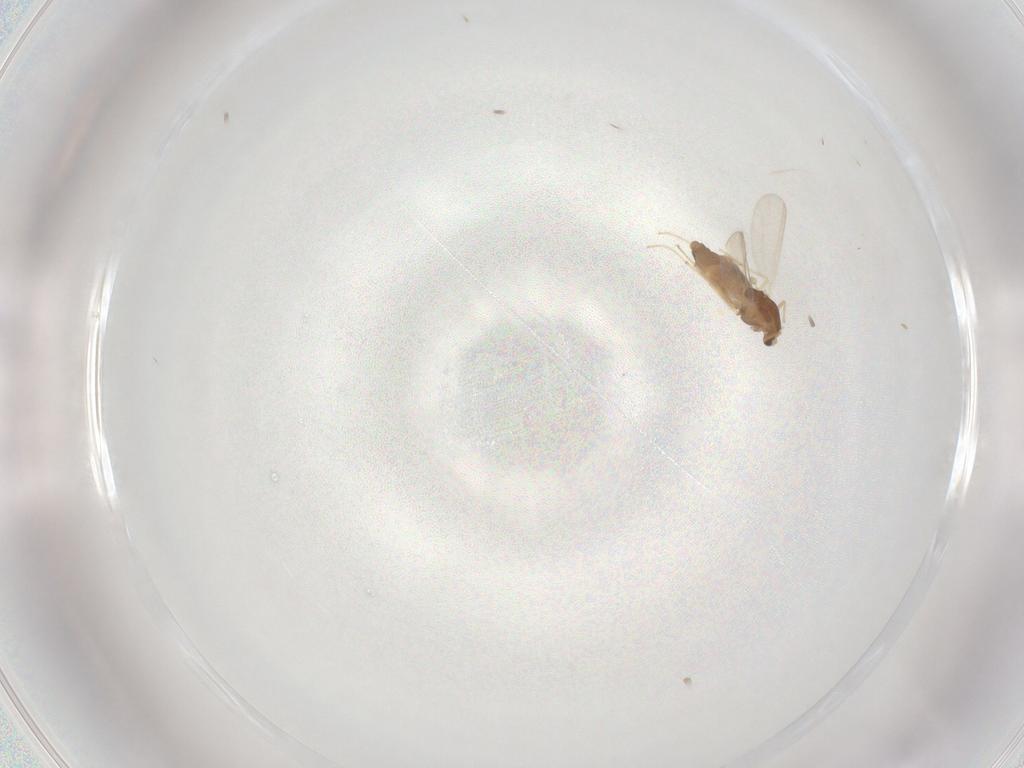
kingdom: Animalia
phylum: Arthropoda
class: Insecta
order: Diptera
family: Chironomidae
